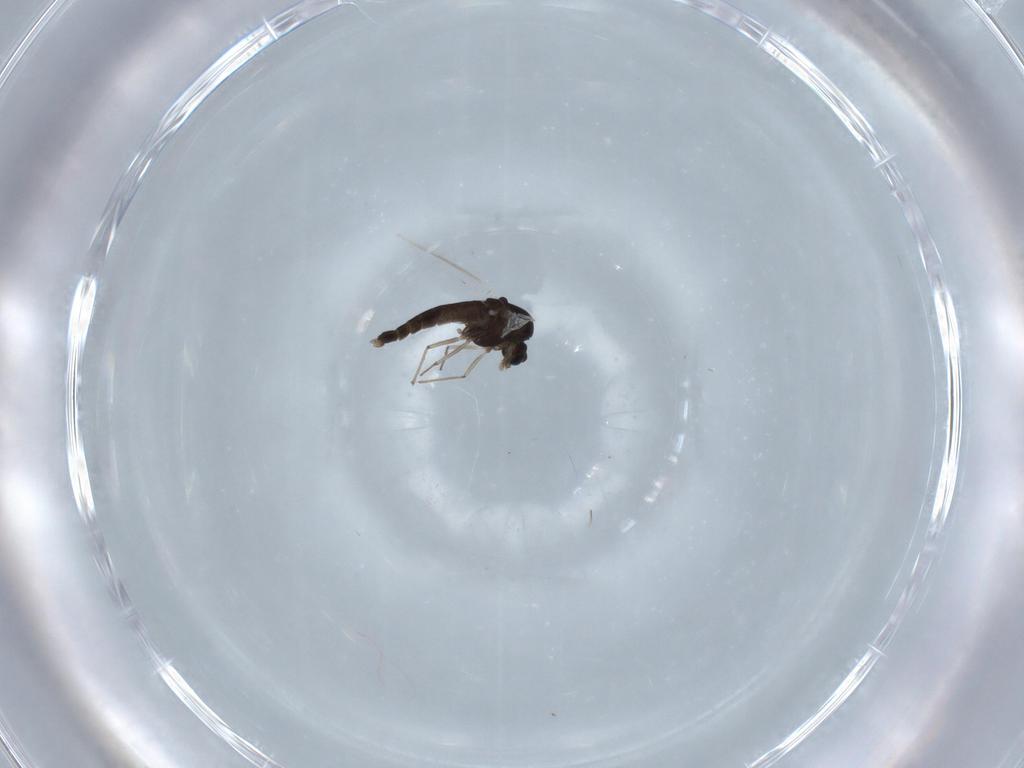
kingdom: Animalia
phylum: Arthropoda
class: Insecta
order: Diptera
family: Chironomidae
